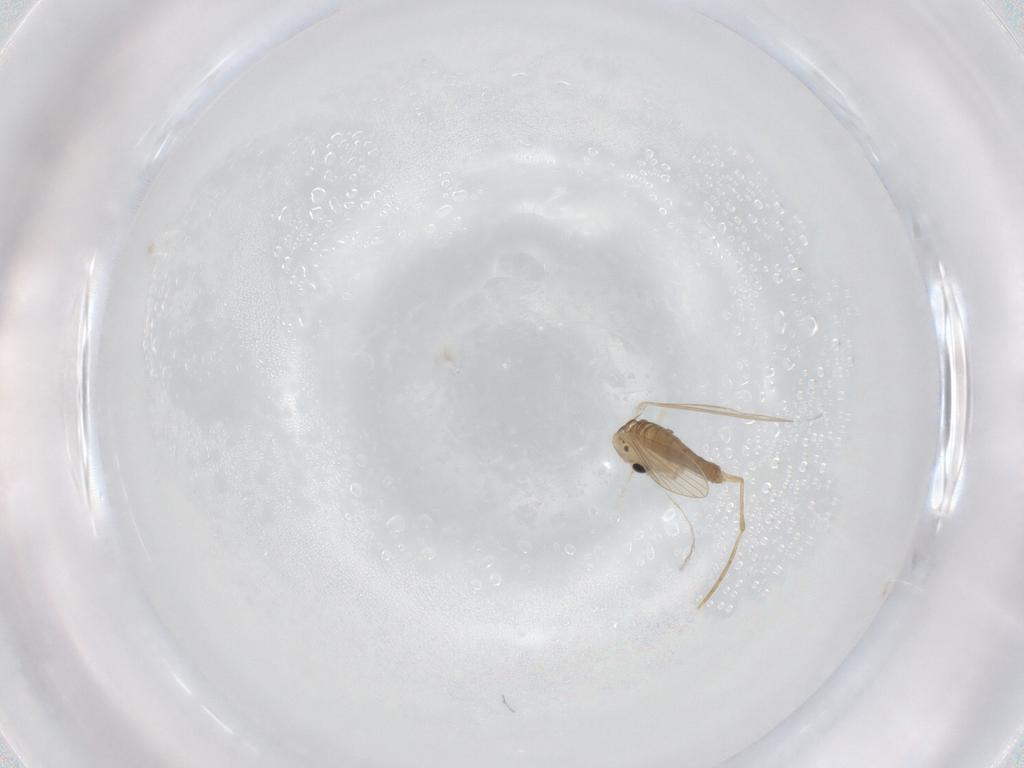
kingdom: Animalia
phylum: Arthropoda
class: Insecta
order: Diptera
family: Psychodidae
